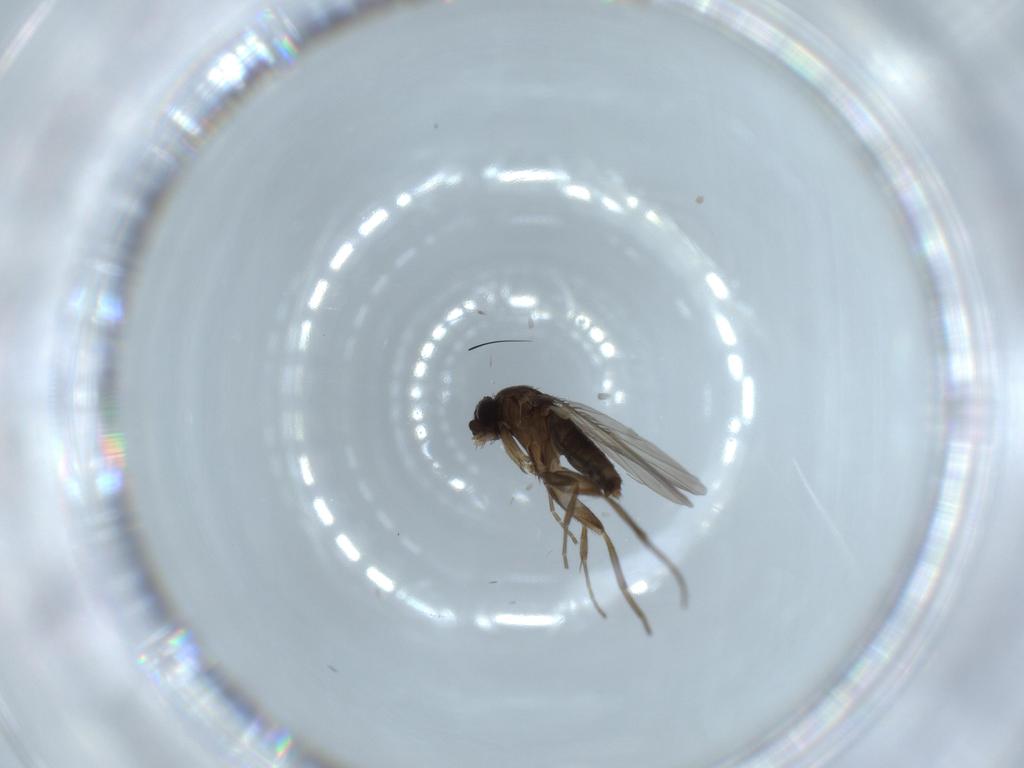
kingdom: Animalia
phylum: Arthropoda
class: Insecta
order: Diptera
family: Phoridae
